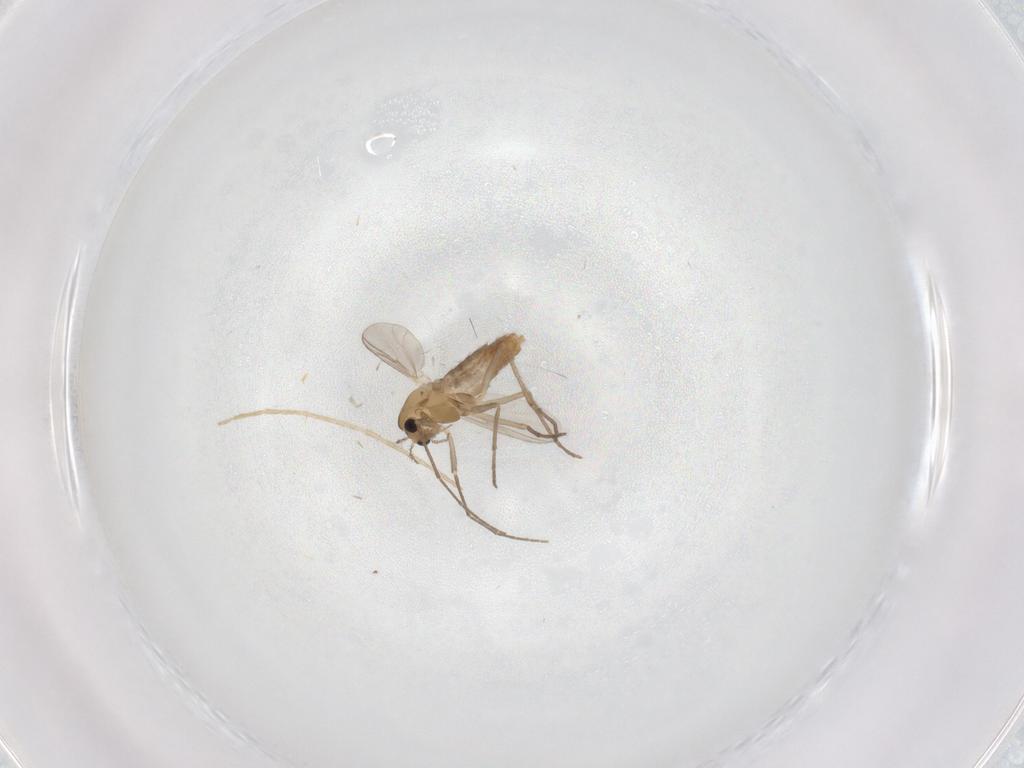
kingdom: Animalia
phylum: Arthropoda
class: Insecta
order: Diptera
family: Chironomidae
